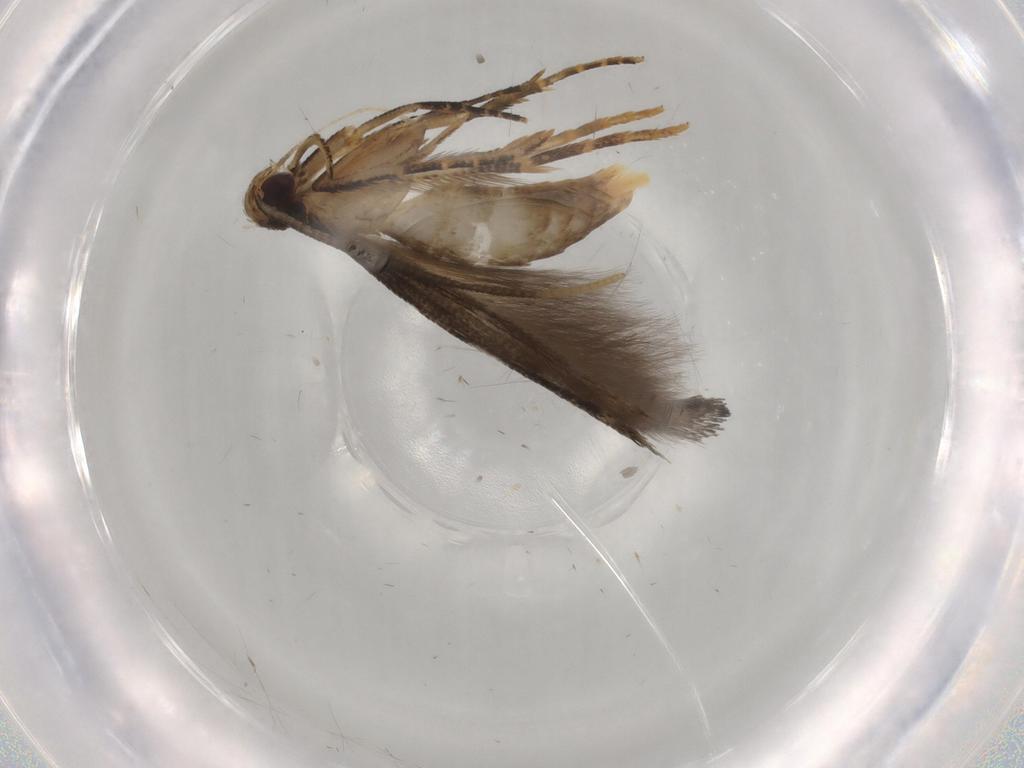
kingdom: Animalia
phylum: Arthropoda
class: Insecta
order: Lepidoptera
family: Cosmopterigidae
